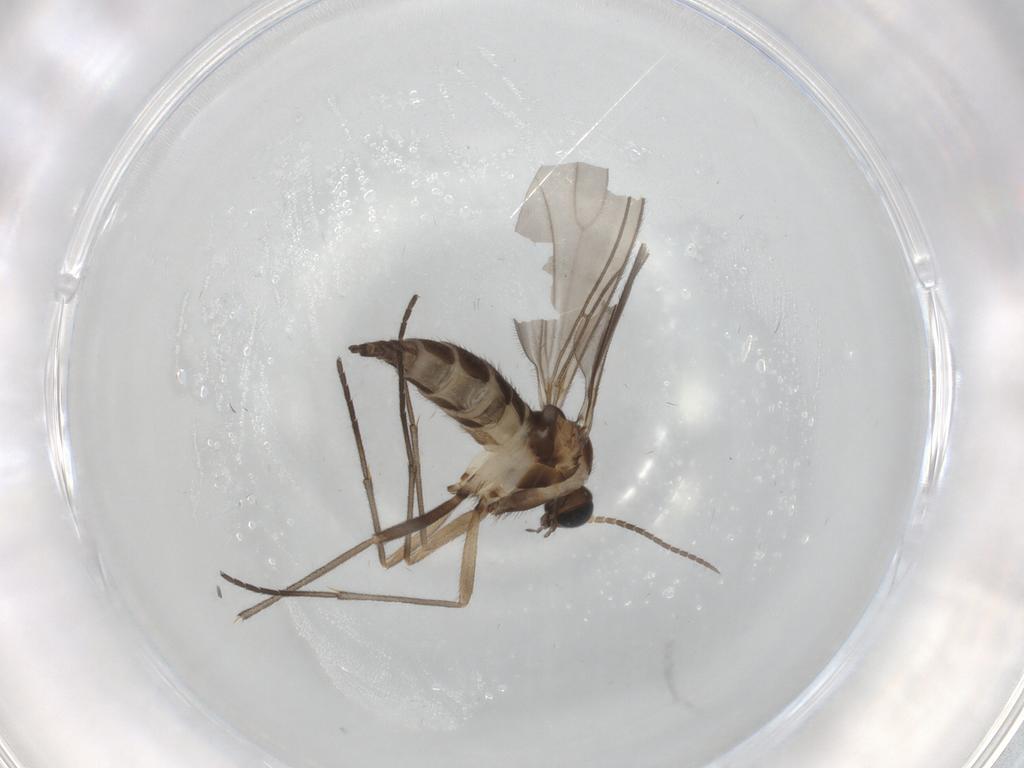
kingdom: Animalia
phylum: Arthropoda
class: Insecta
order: Diptera
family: Sciaridae
